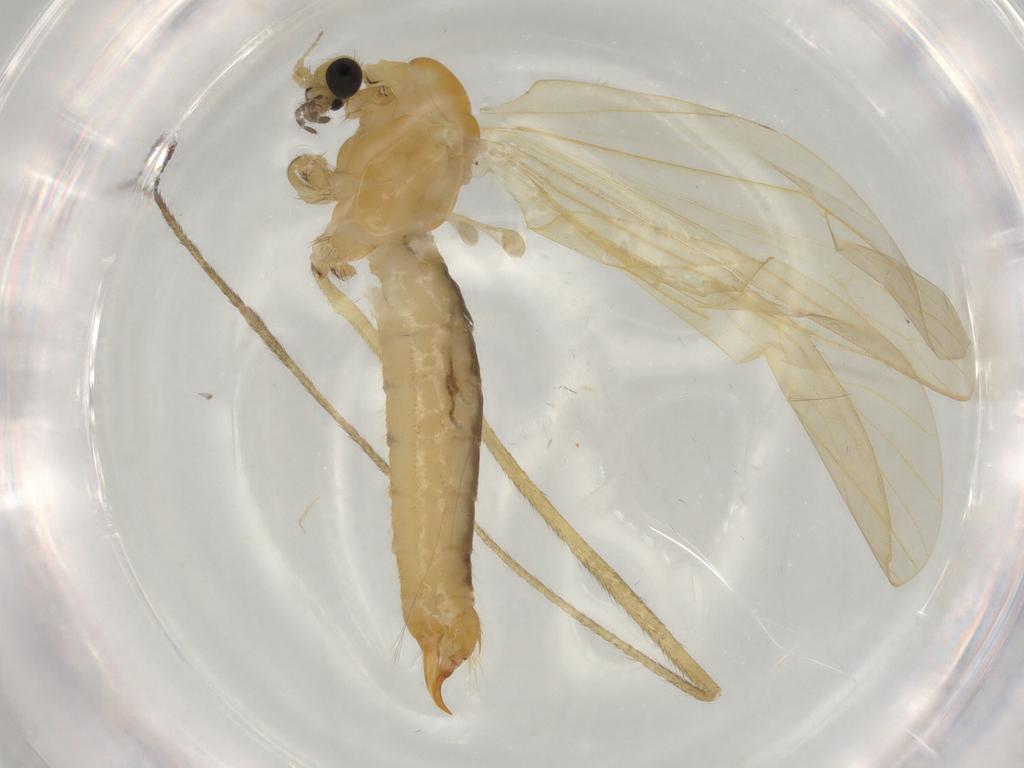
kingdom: Animalia
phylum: Arthropoda
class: Insecta
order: Diptera
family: Limoniidae
